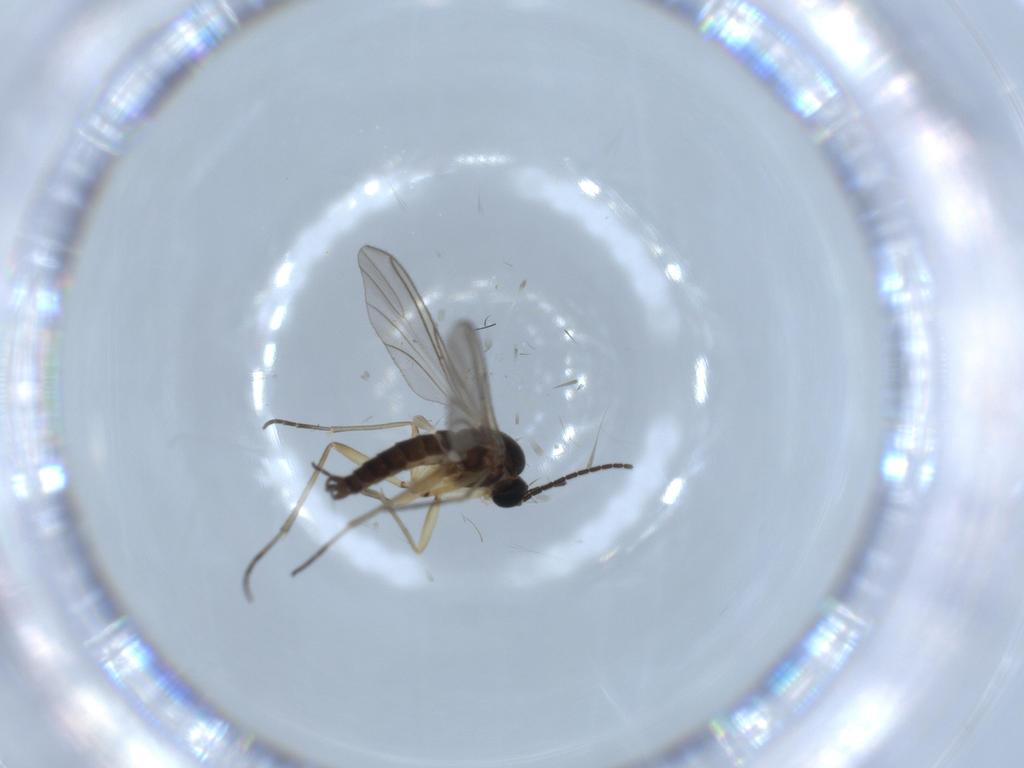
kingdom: Animalia
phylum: Arthropoda
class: Insecta
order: Diptera
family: Sciaridae
